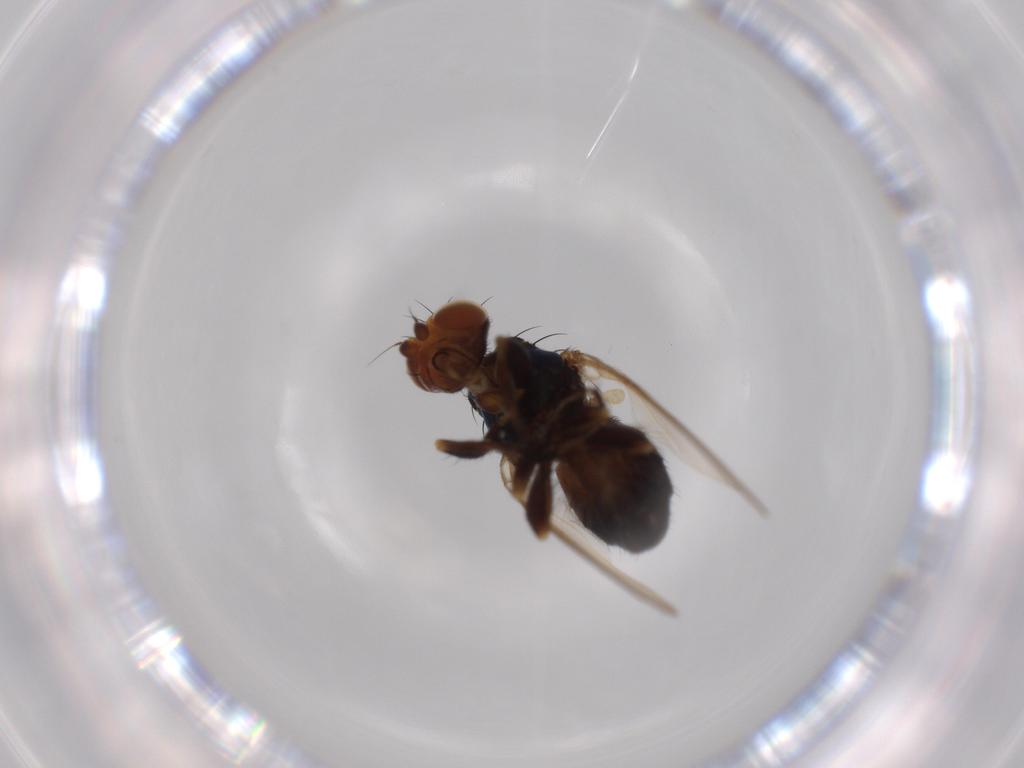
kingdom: Animalia
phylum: Arthropoda
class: Insecta
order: Diptera
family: Piophilidae
